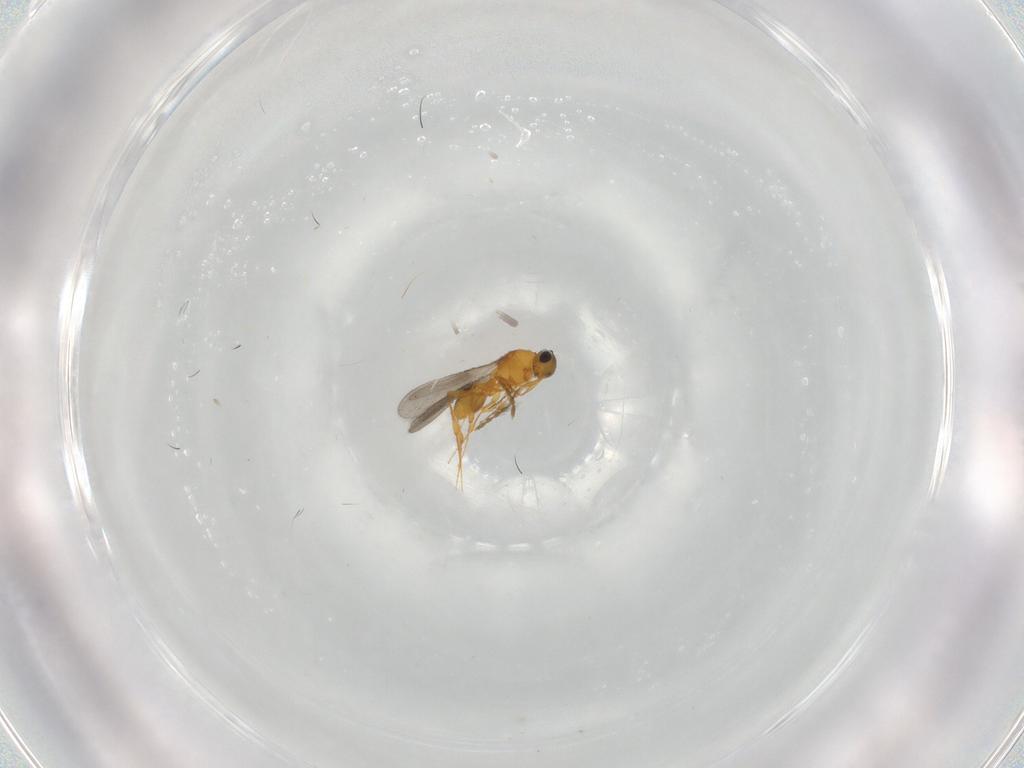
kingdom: Animalia
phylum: Arthropoda
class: Insecta
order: Hymenoptera
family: Platygastridae
